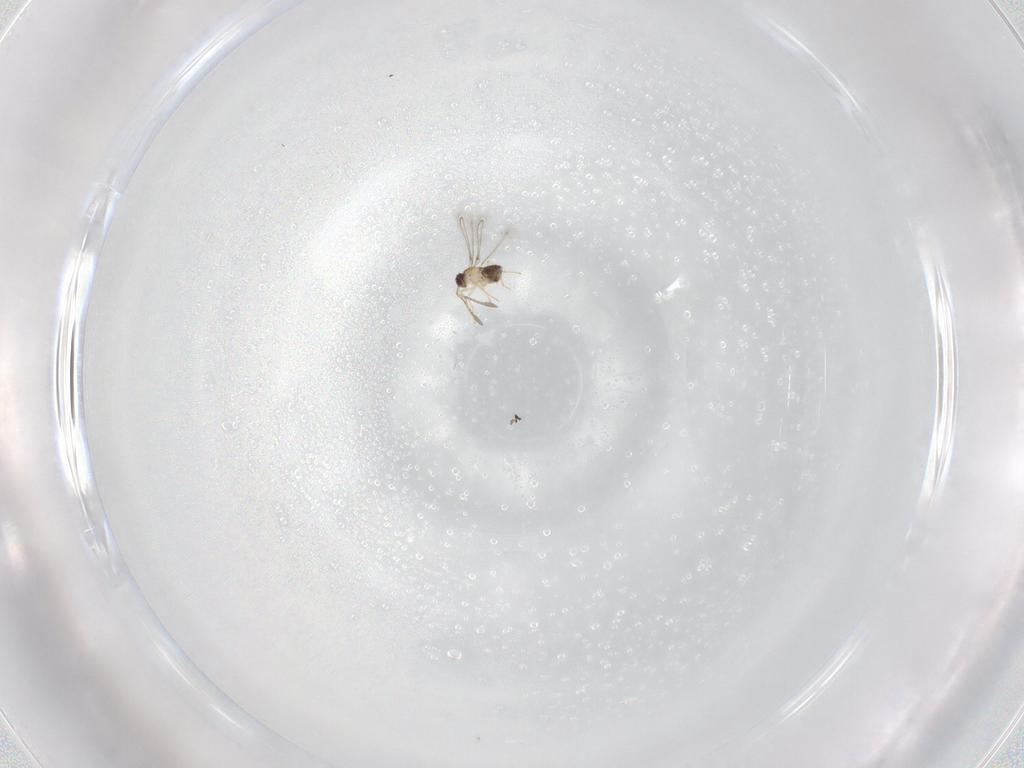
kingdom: Animalia
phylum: Arthropoda
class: Insecta
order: Hymenoptera
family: Mymaridae
